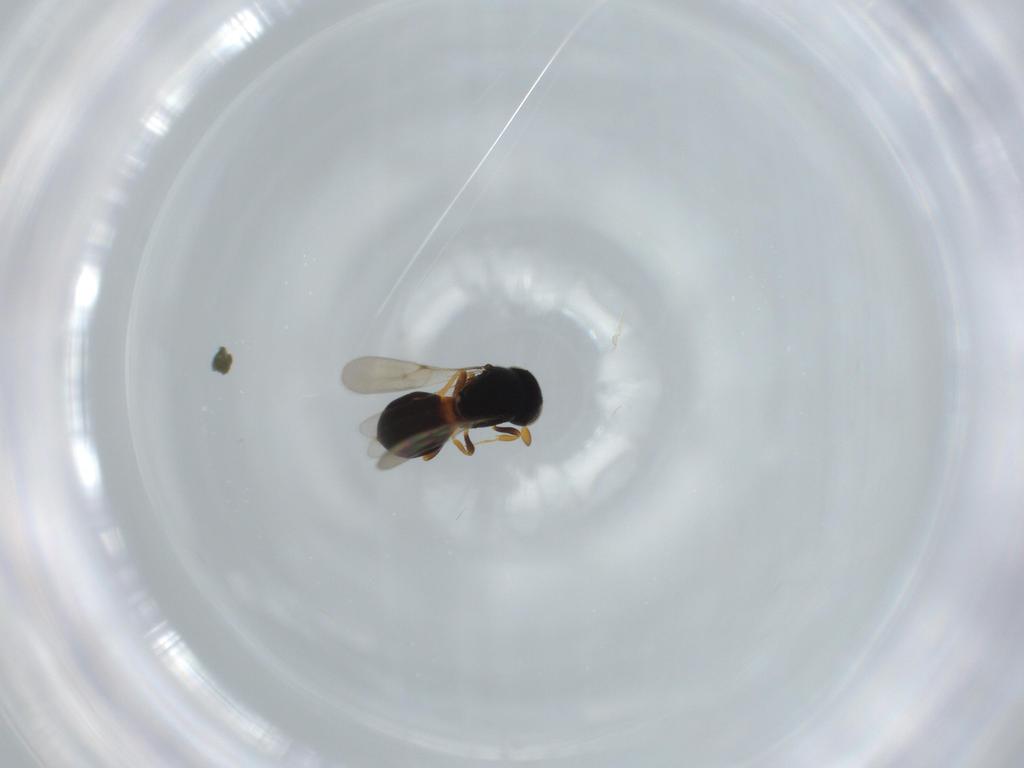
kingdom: Animalia
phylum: Arthropoda
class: Insecta
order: Hymenoptera
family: Scelionidae
